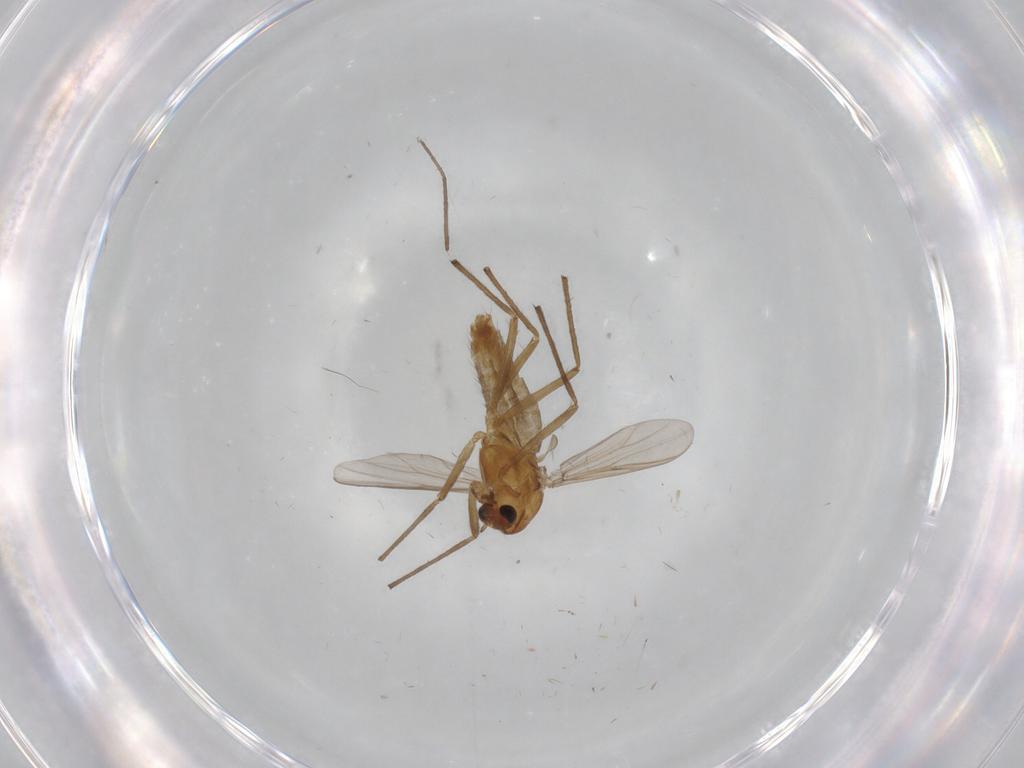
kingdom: Animalia
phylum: Arthropoda
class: Insecta
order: Diptera
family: Chironomidae
